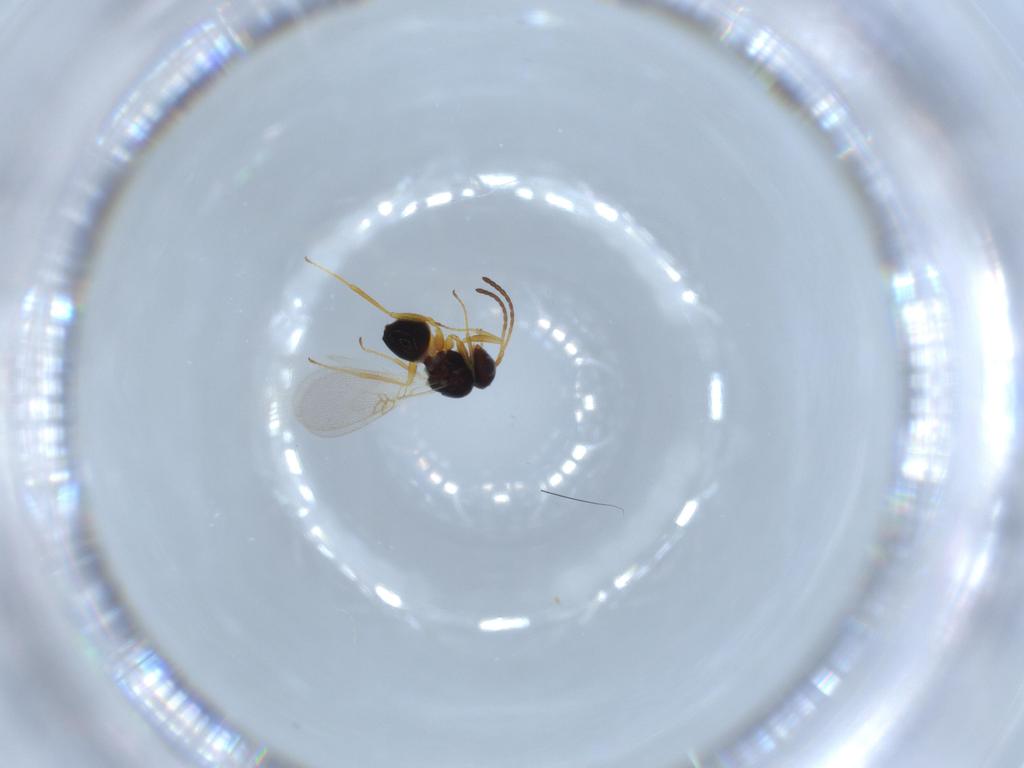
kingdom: Animalia
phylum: Arthropoda
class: Insecta
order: Hymenoptera
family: Figitidae
